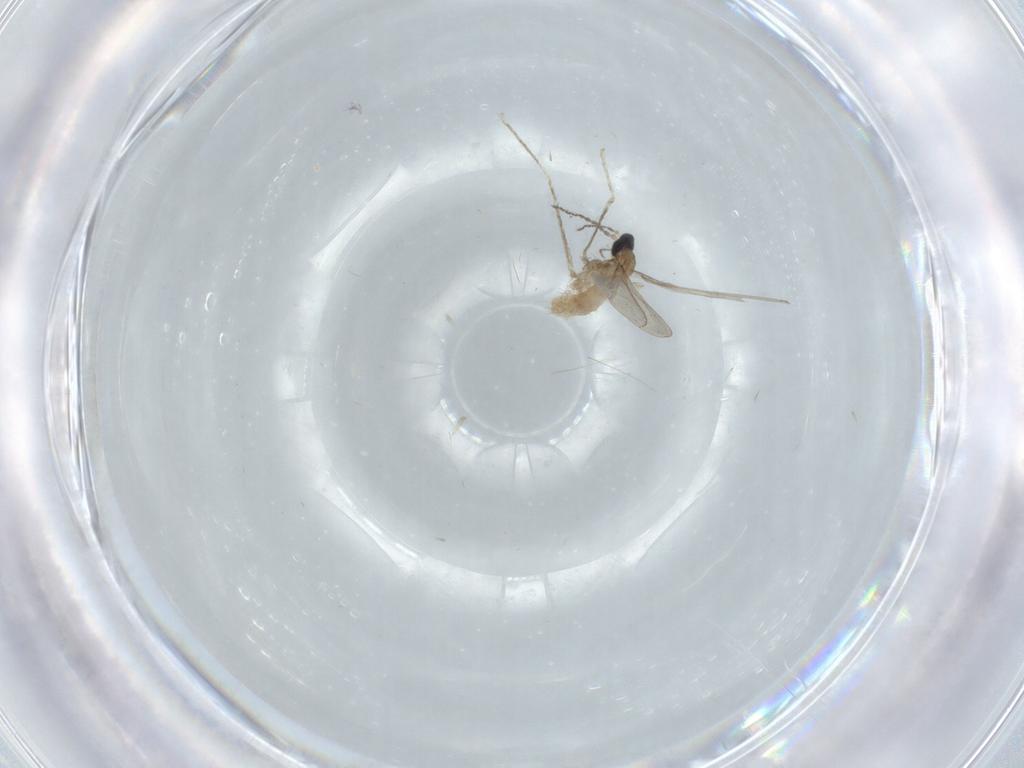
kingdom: Animalia
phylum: Arthropoda
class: Insecta
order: Diptera
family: Cecidomyiidae
